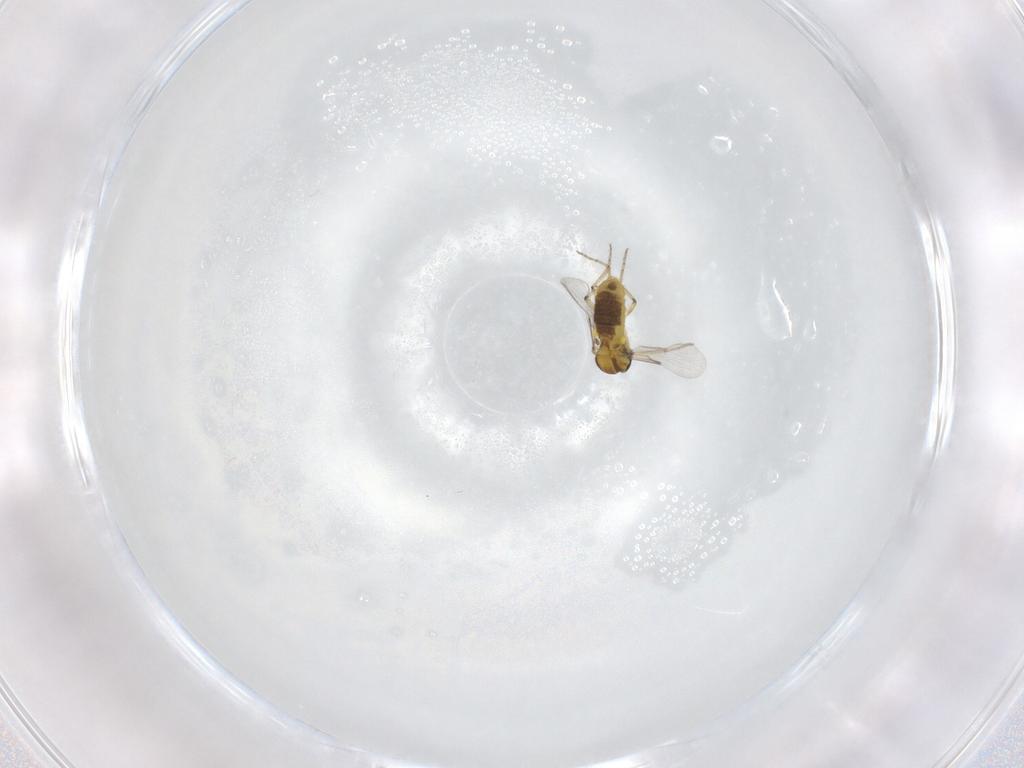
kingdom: Animalia
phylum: Arthropoda
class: Insecta
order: Diptera
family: Ceratopogonidae
